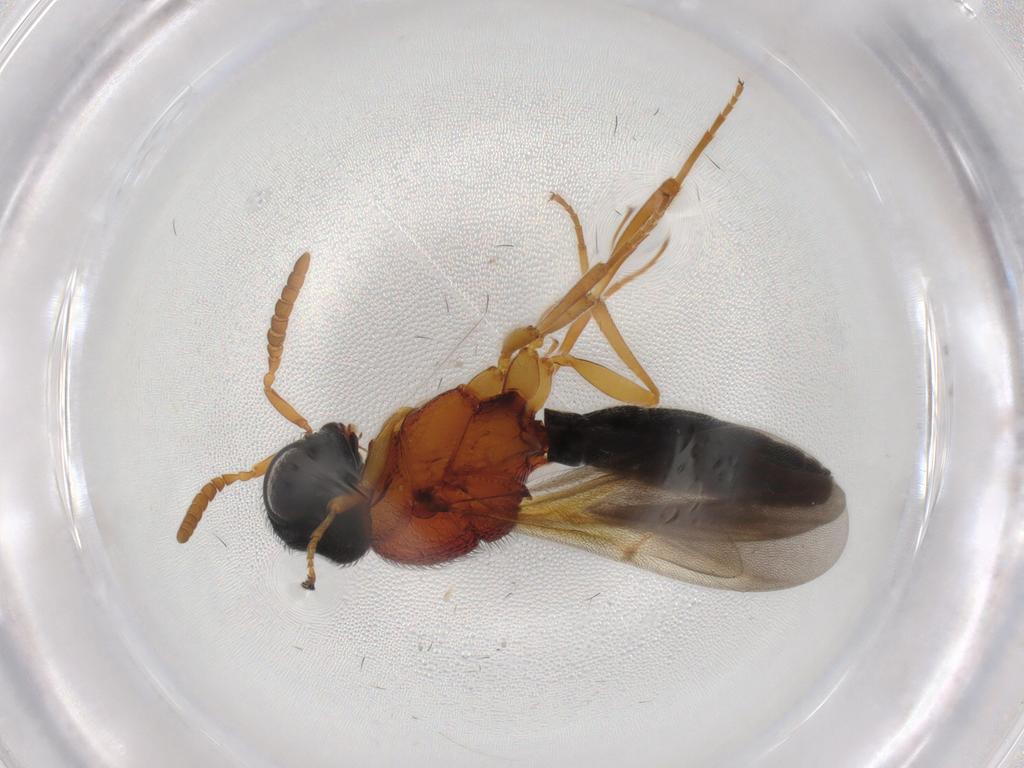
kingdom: Animalia
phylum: Arthropoda
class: Insecta
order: Hymenoptera
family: Scelionidae
